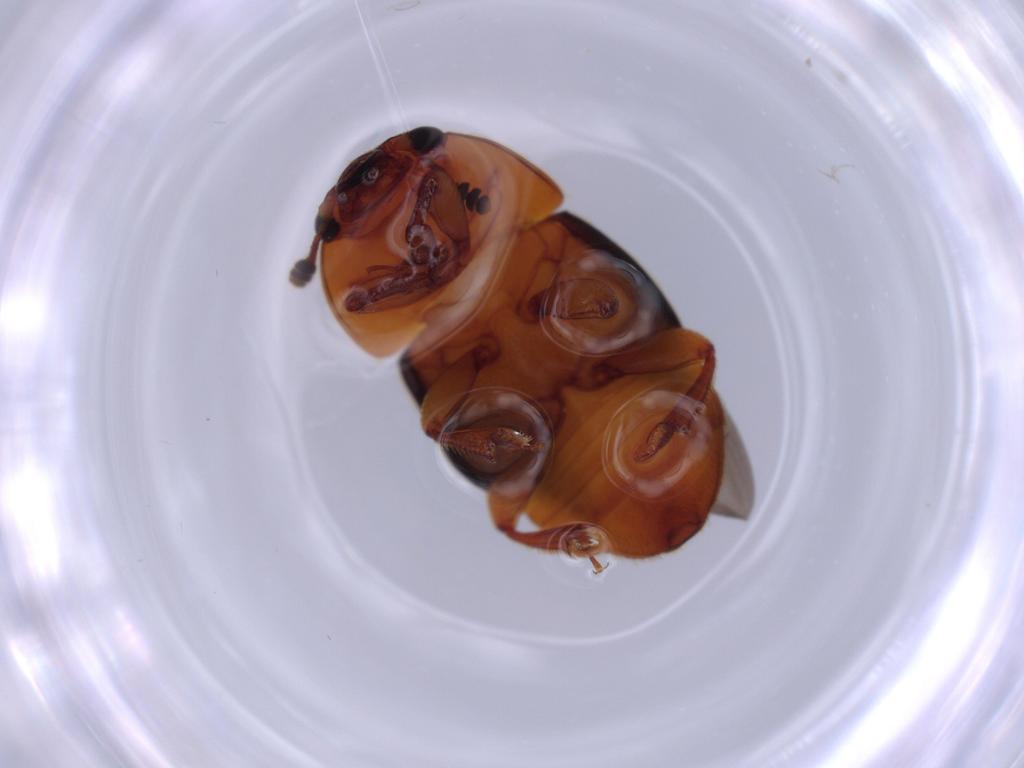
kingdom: Animalia
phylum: Arthropoda
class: Insecta
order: Coleoptera
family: Nitidulidae
